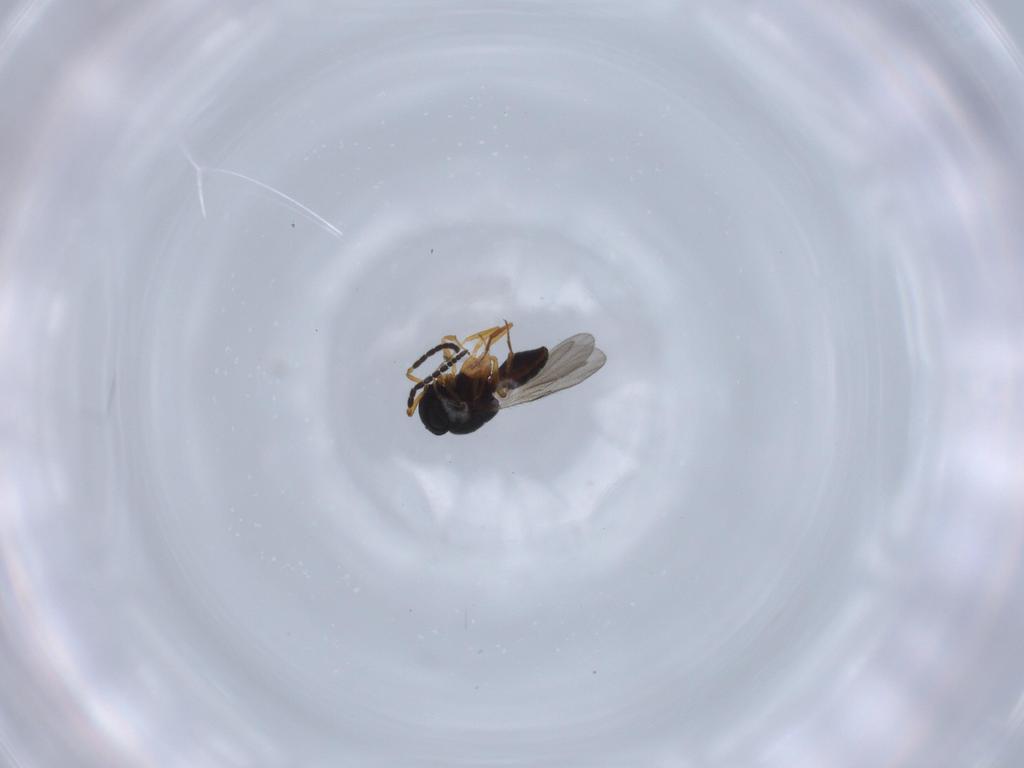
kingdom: Animalia
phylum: Arthropoda
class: Insecta
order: Coleoptera
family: Curculionidae
